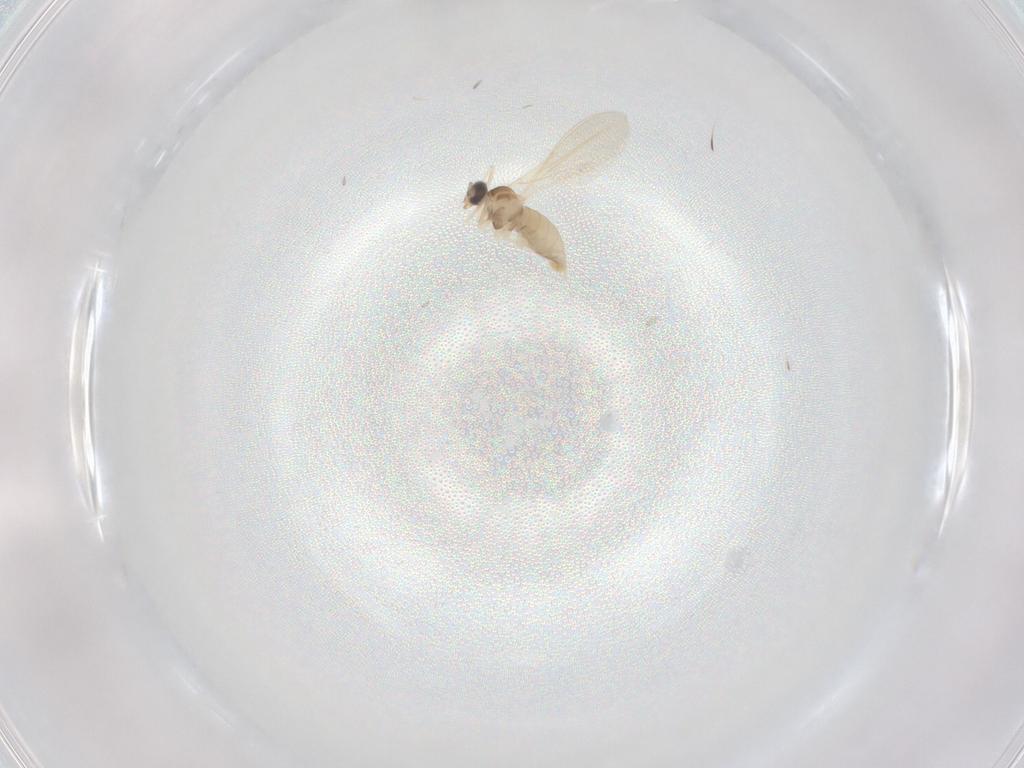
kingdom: Animalia
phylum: Arthropoda
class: Insecta
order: Diptera
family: Cecidomyiidae
